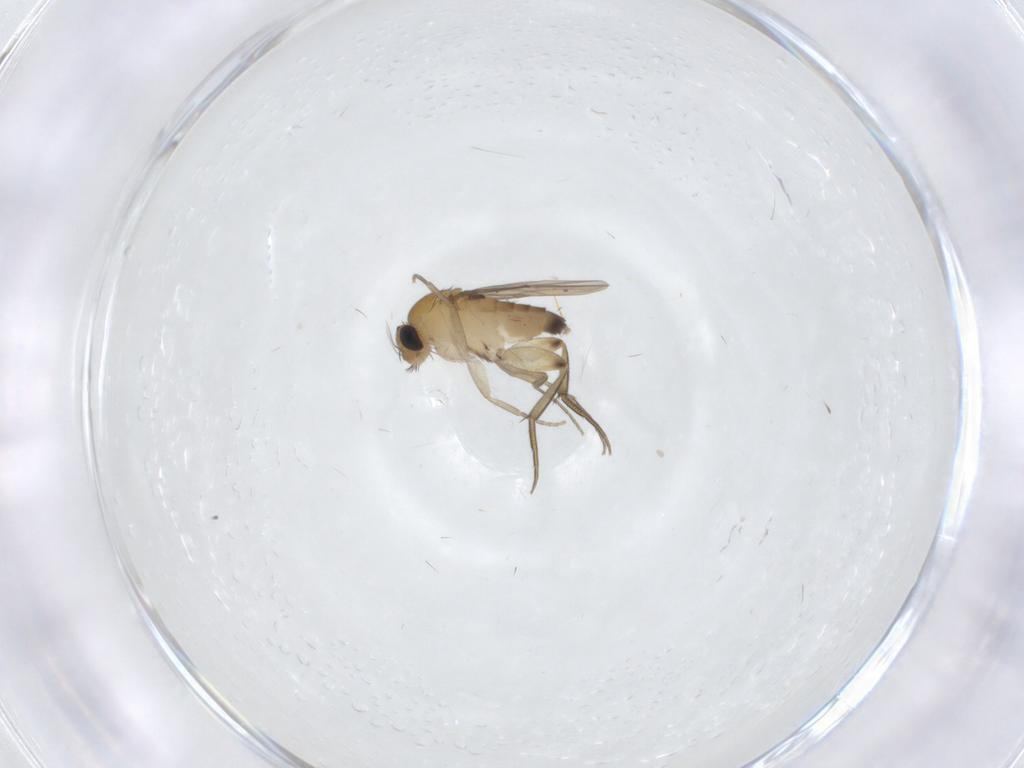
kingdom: Animalia
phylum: Arthropoda
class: Insecta
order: Diptera
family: Phoridae
